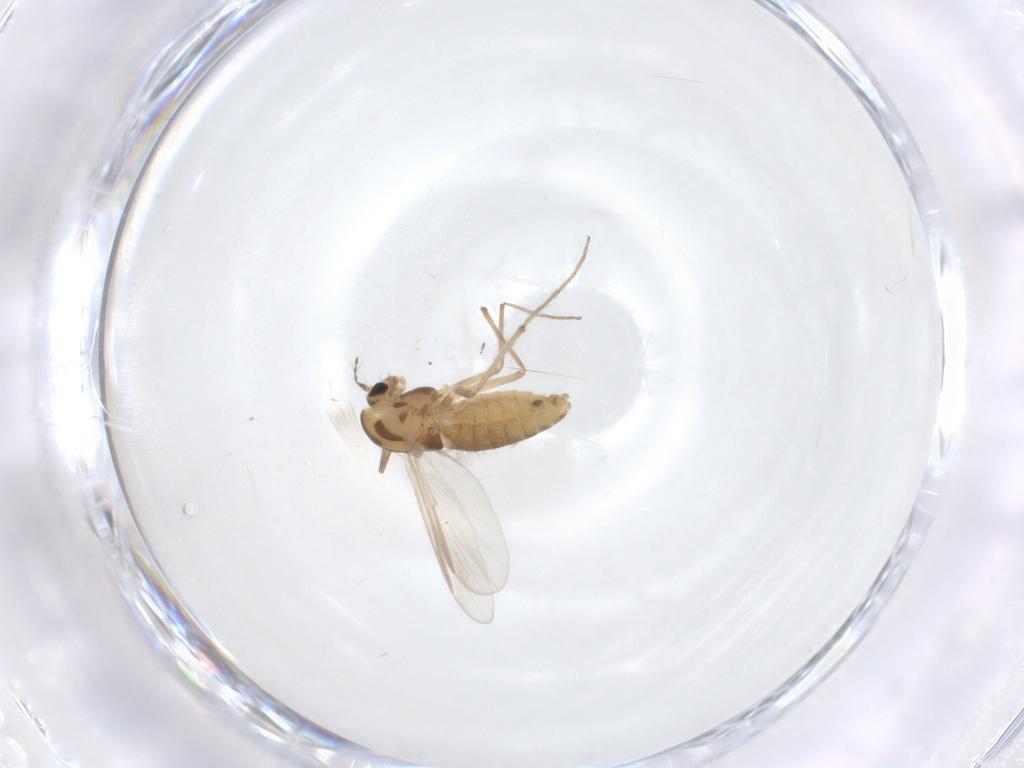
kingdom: Animalia
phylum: Arthropoda
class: Insecta
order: Diptera
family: Chironomidae
